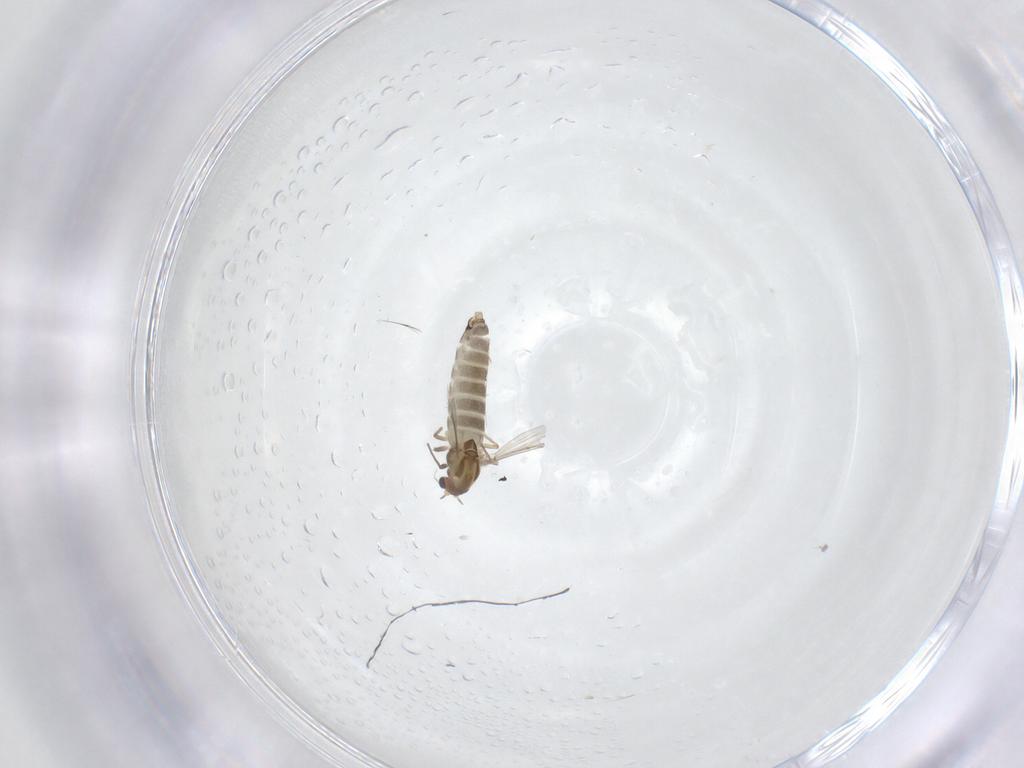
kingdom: Animalia
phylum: Arthropoda
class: Insecta
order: Diptera
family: Chironomidae
